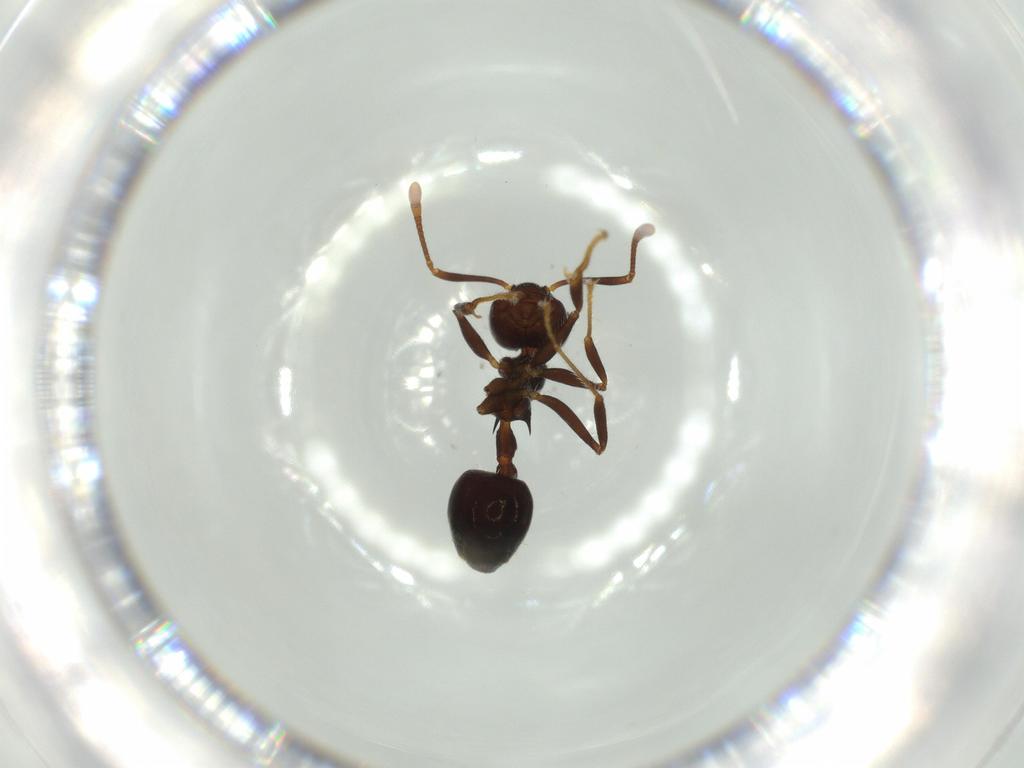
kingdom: Animalia
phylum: Arthropoda
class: Insecta
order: Hymenoptera
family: Formicidae
